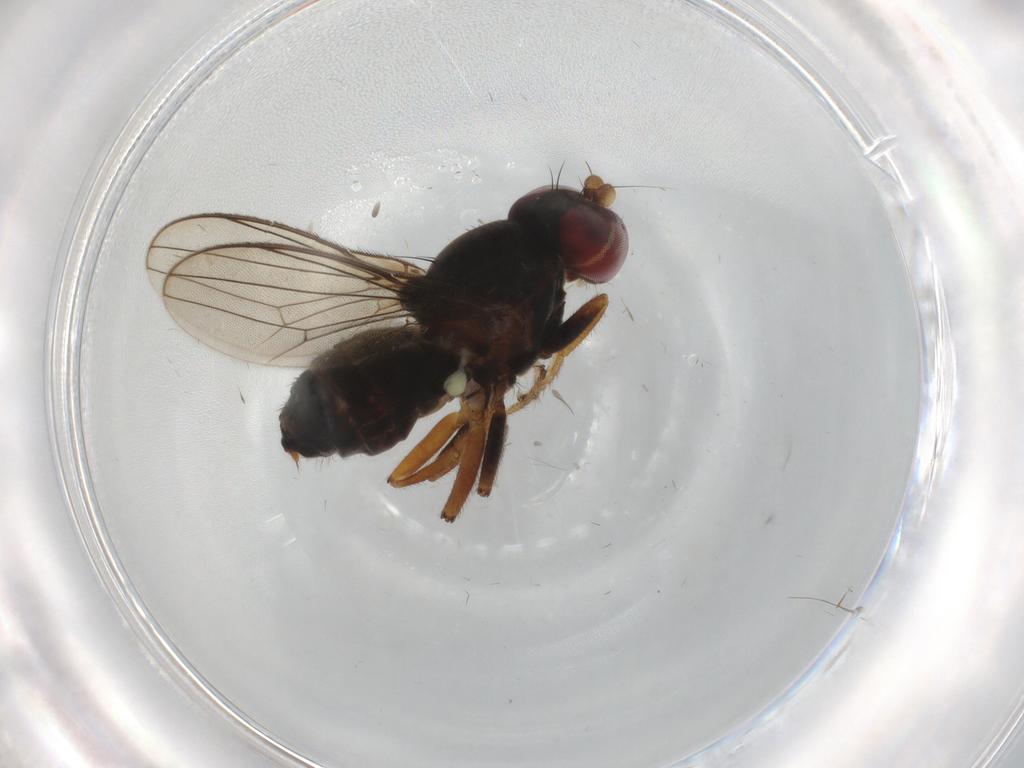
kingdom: Animalia
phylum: Arthropoda
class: Insecta
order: Diptera
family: Aulacigastridae
